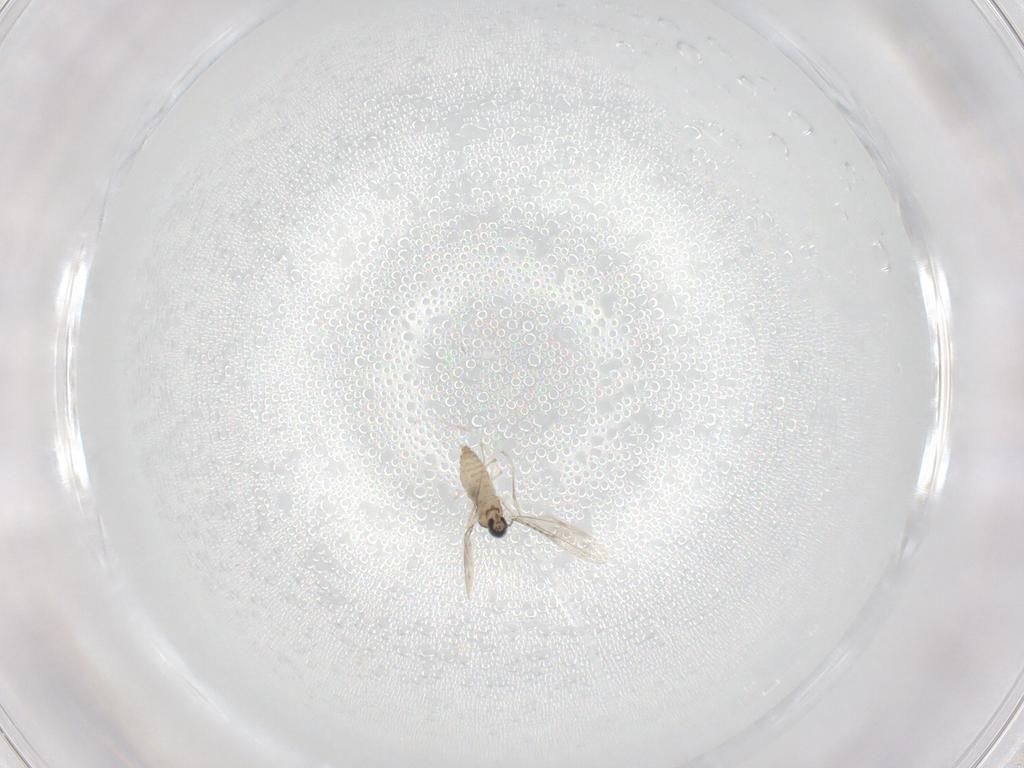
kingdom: Animalia
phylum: Arthropoda
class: Insecta
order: Diptera
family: Cecidomyiidae
